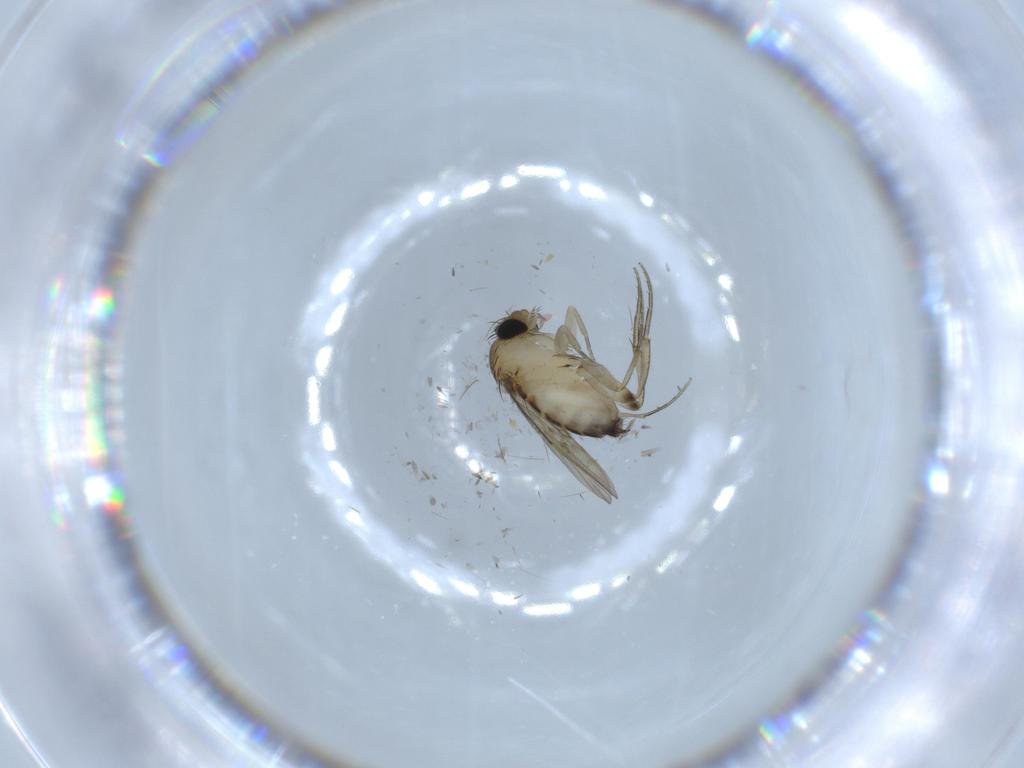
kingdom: Animalia
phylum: Arthropoda
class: Insecta
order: Diptera
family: Phoridae
